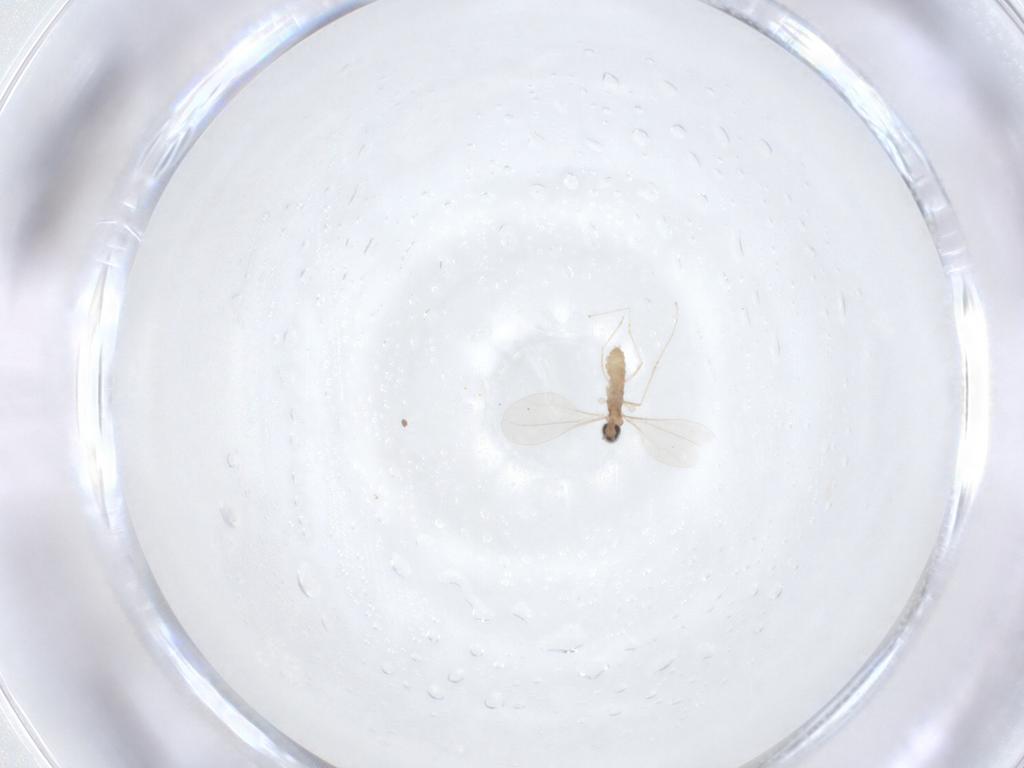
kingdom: Animalia
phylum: Arthropoda
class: Insecta
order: Diptera
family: Cecidomyiidae
